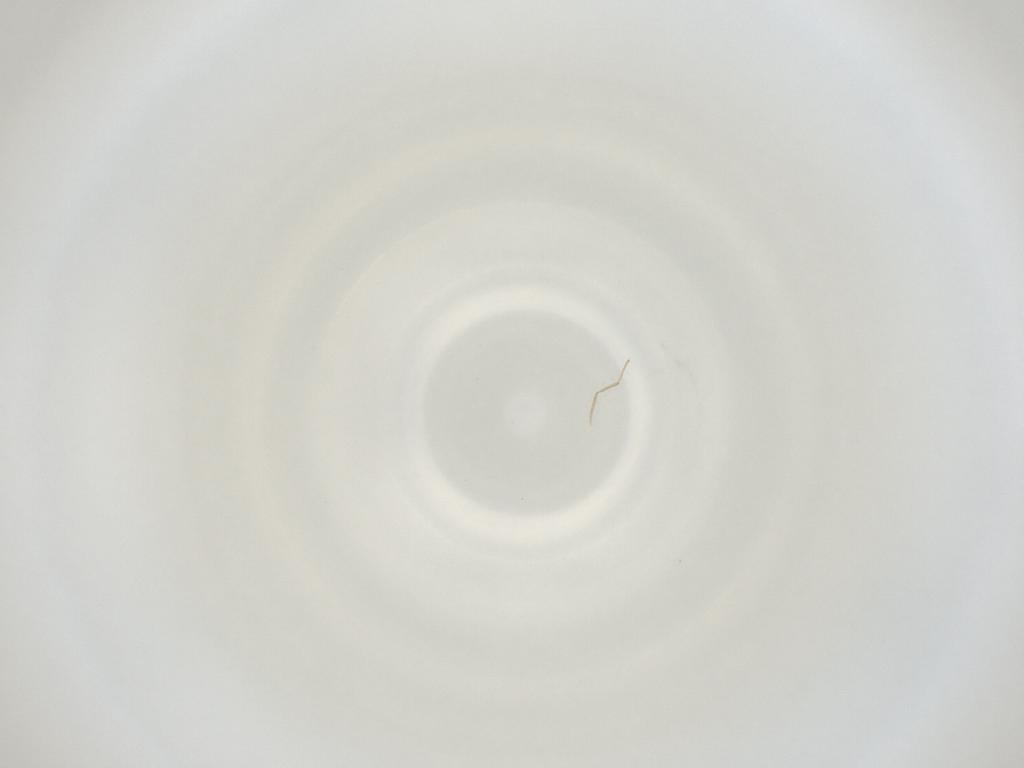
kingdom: Animalia
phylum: Arthropoda
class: Insecta
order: Diptera
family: Cecidomyiidae
